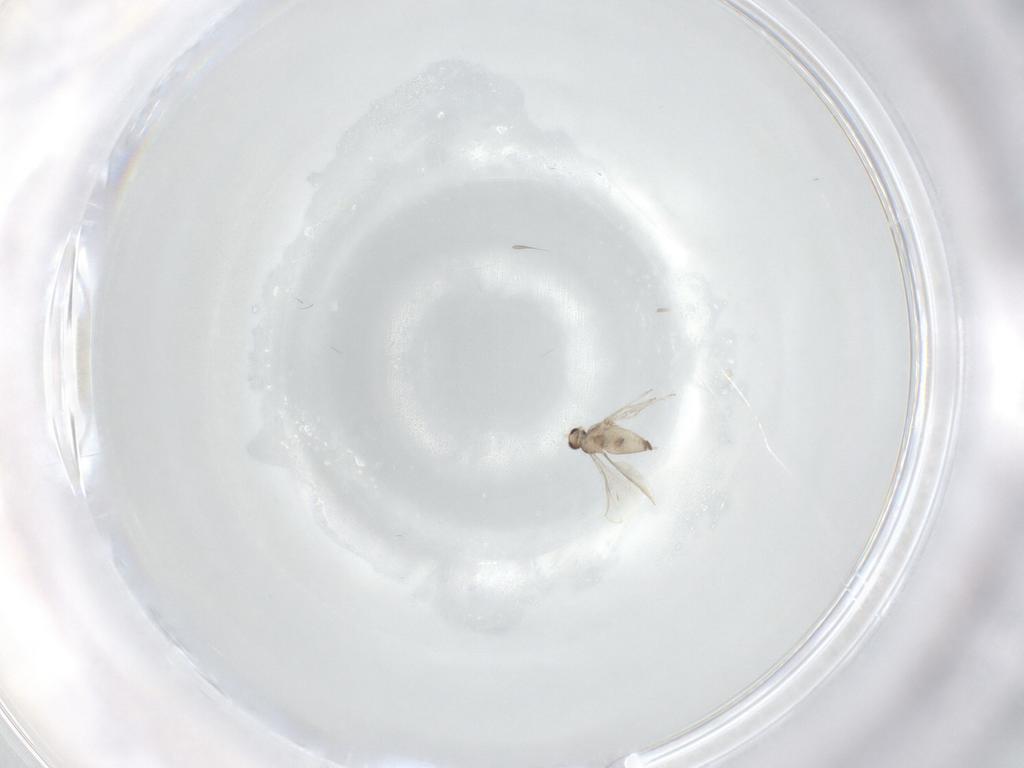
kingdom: Animalia
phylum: Arthropoda
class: Insecta
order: Diptera
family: Cecidomyiidae
